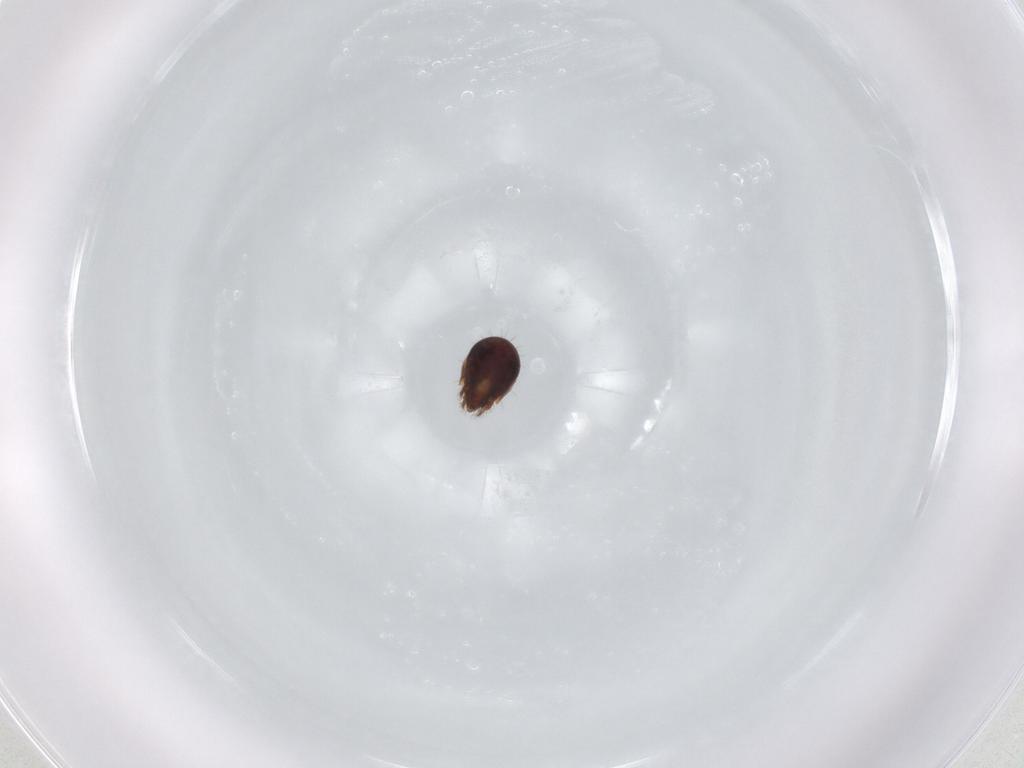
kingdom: Animalia
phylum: Arthropoda
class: Arachnida
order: Sarcoptiformes
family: Humerobatidae
